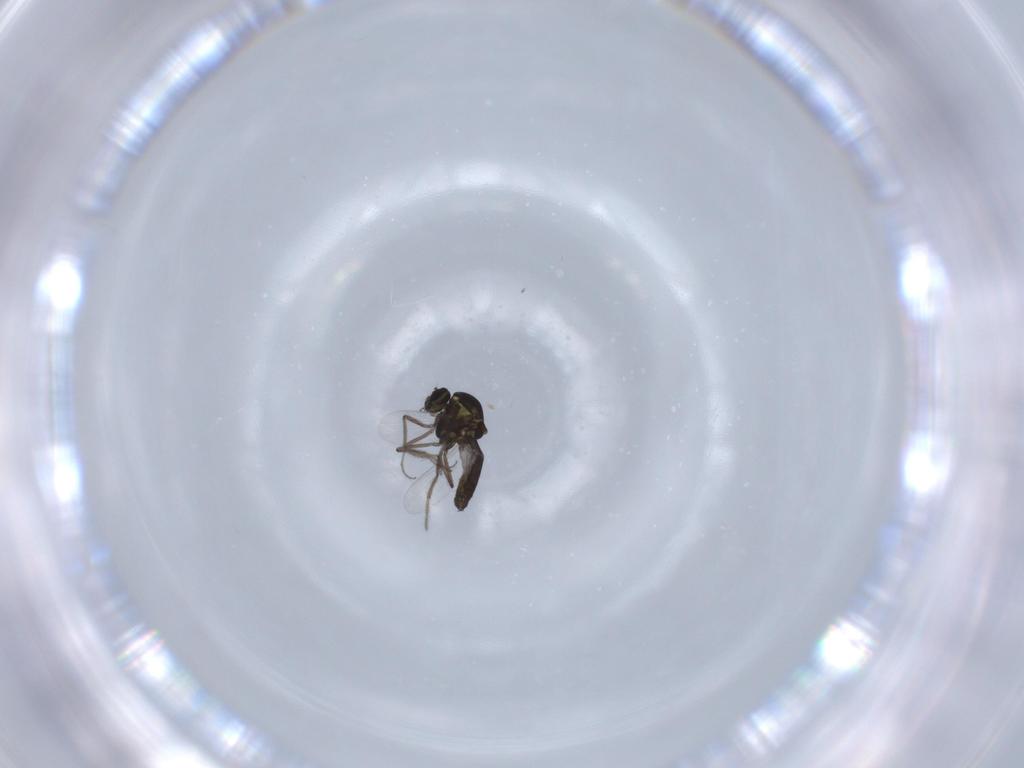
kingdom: Animalia
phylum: Arthropoda
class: Insecta
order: Diptera
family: Ceratopogonidae
